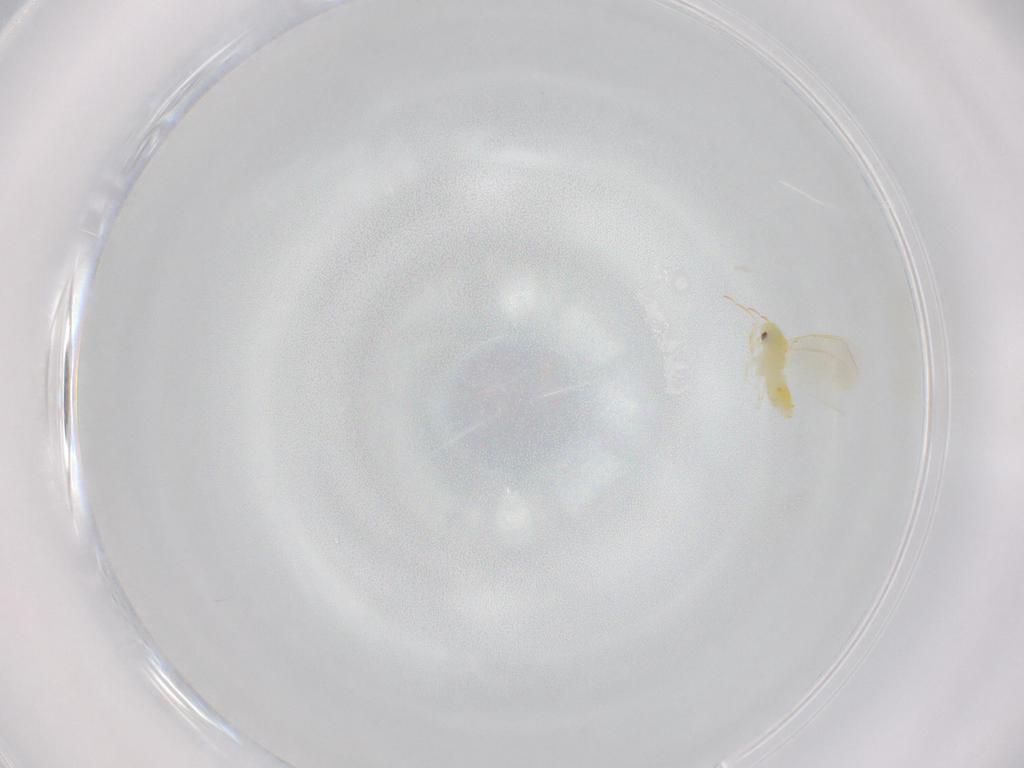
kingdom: Animalia
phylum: Arthropoda
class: Insecta
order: Hemiptera
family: Aleyrodidae
